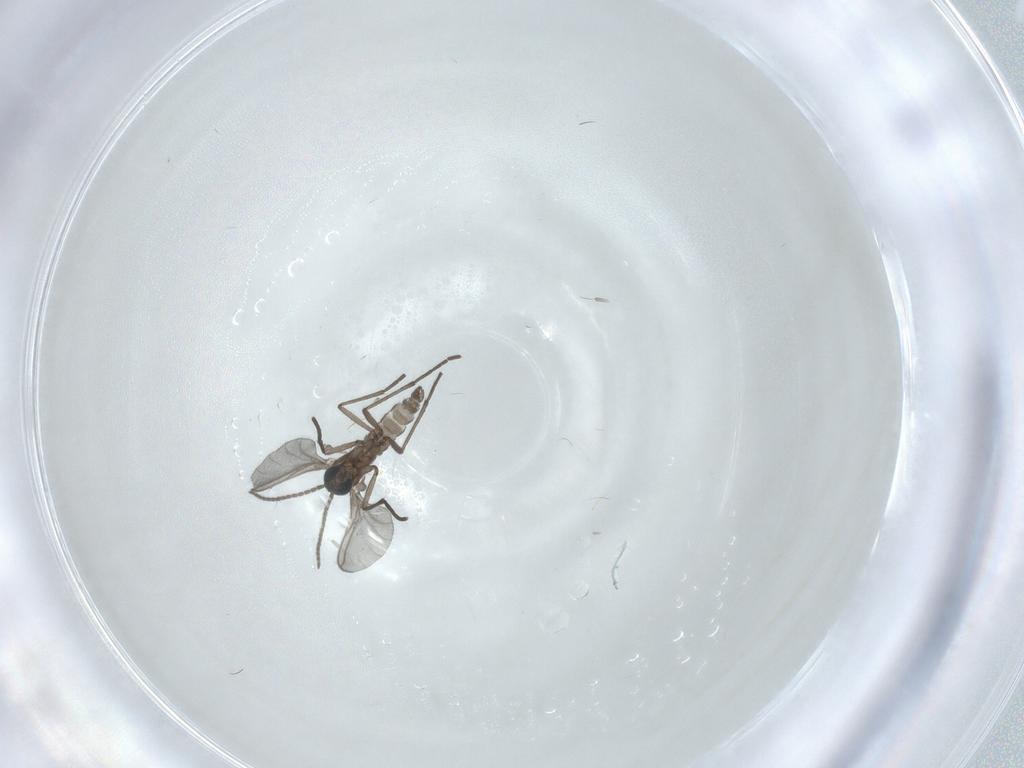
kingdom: Animalia
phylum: Arthropoda
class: Insecta
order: Diptera
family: Sciaridae
